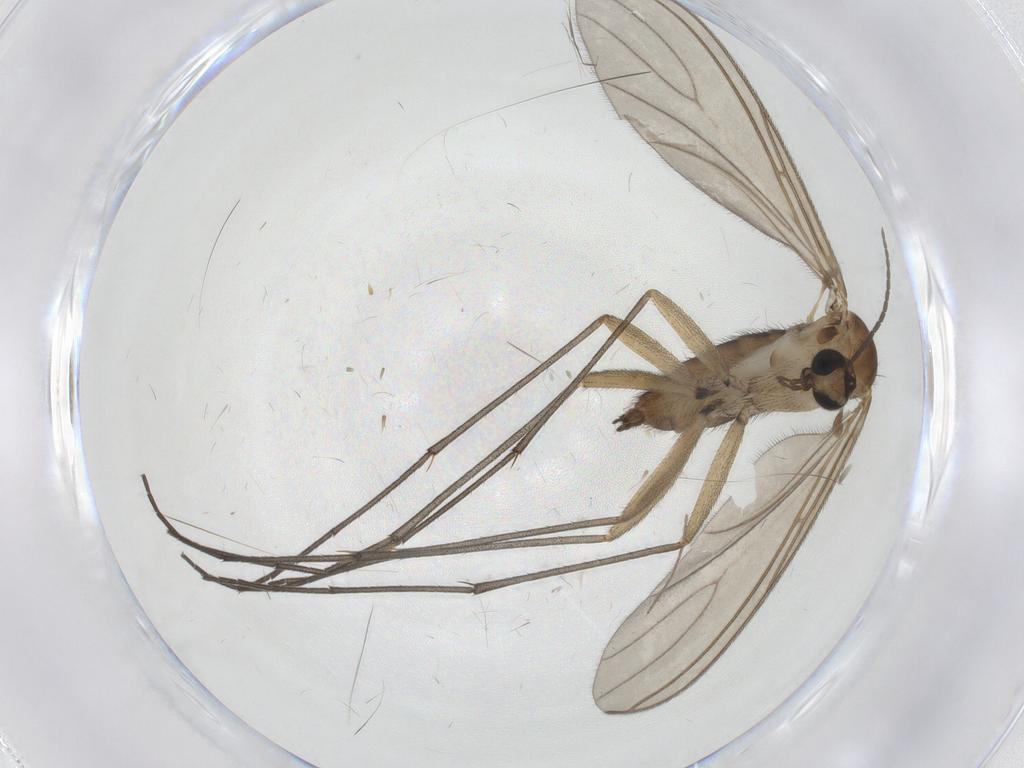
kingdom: Animalia
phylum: Arthropoda
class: Insecta
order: Diptera
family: Sciaridae
